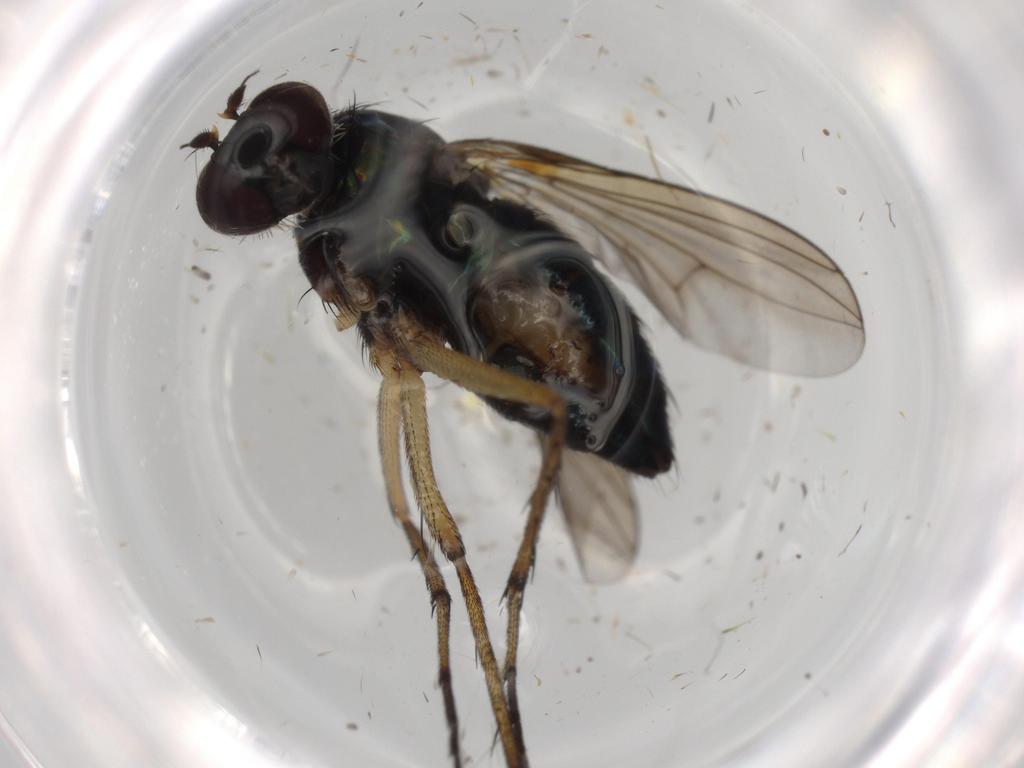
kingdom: Animalia
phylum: Arthropoda
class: Insecta
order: Diptera
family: Dolichopodidae
